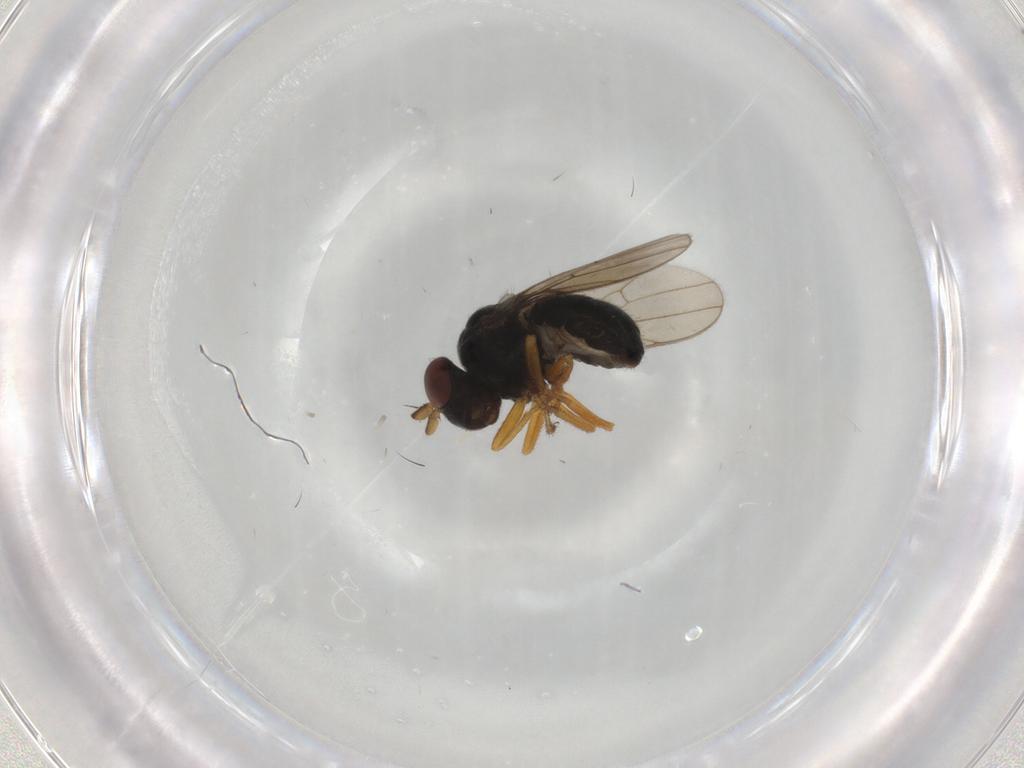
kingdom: Animalia
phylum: Arthropoda
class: Insecta
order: Diptera
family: Ephydridae
